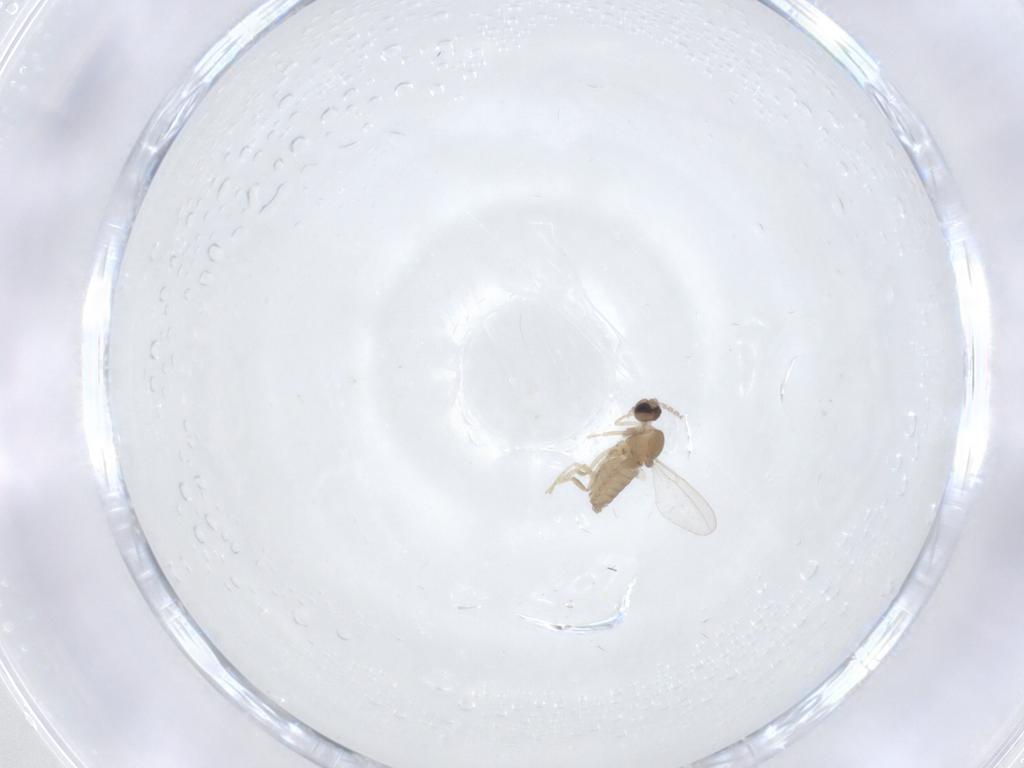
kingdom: Animalia
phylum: Arthropoda
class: Insecta
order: Diptera
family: Cecidomyiidae
